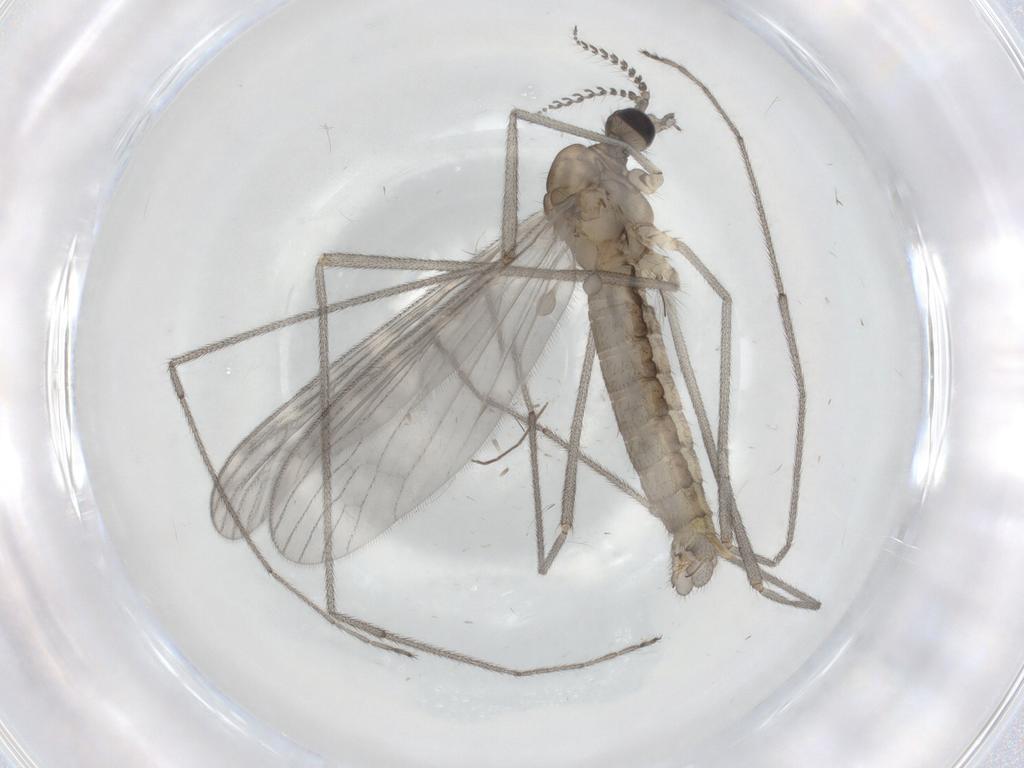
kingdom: Animalia
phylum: Arthropoda
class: Insecta
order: Diptera
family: Limoniidae
